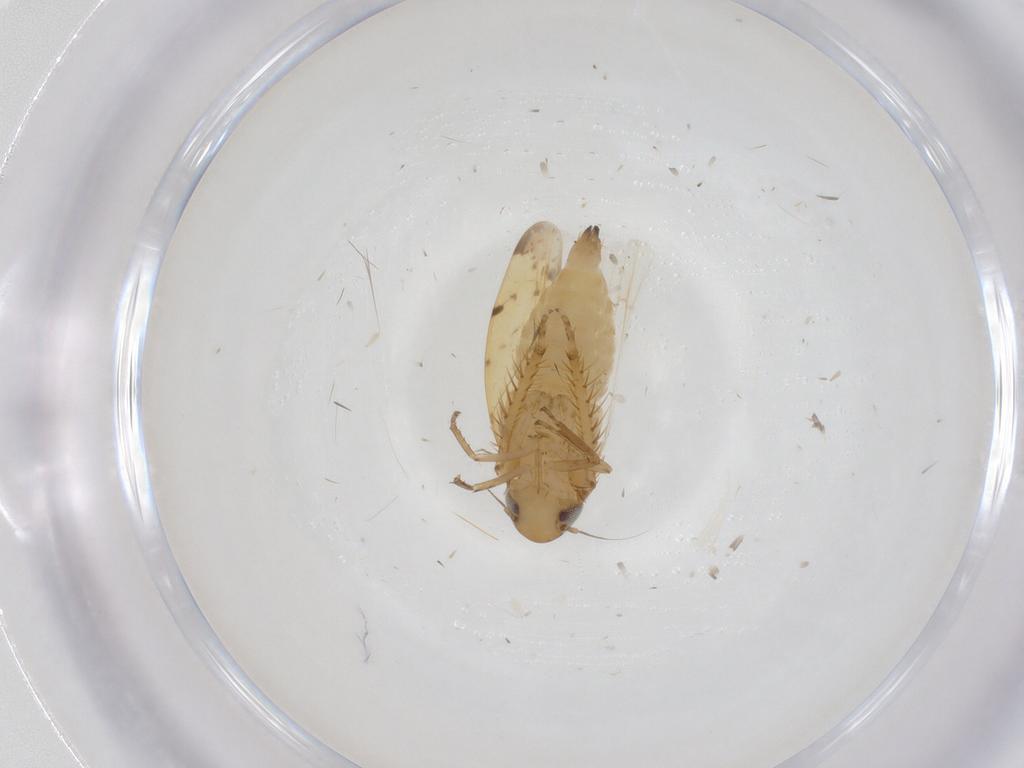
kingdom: Animalia
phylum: Arthropoda
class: Insecta
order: Hemiptera
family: Cicadellidae
